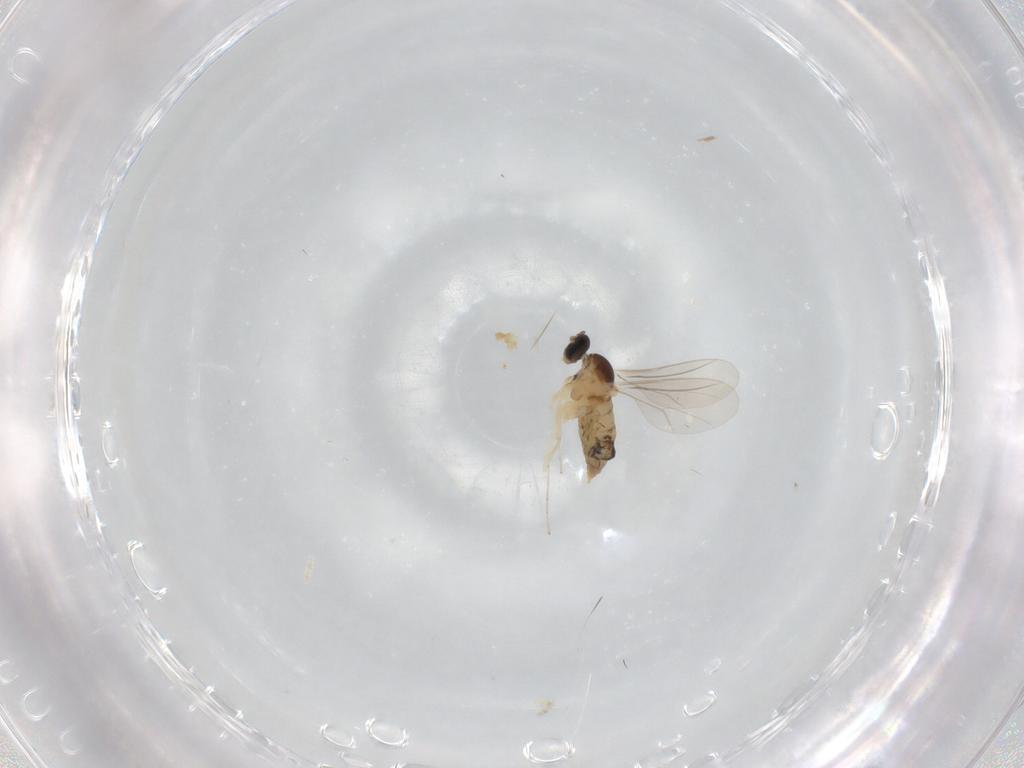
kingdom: Animalia
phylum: Arthropoda
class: Insecta
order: Diptera
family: Cecidomyiidae
